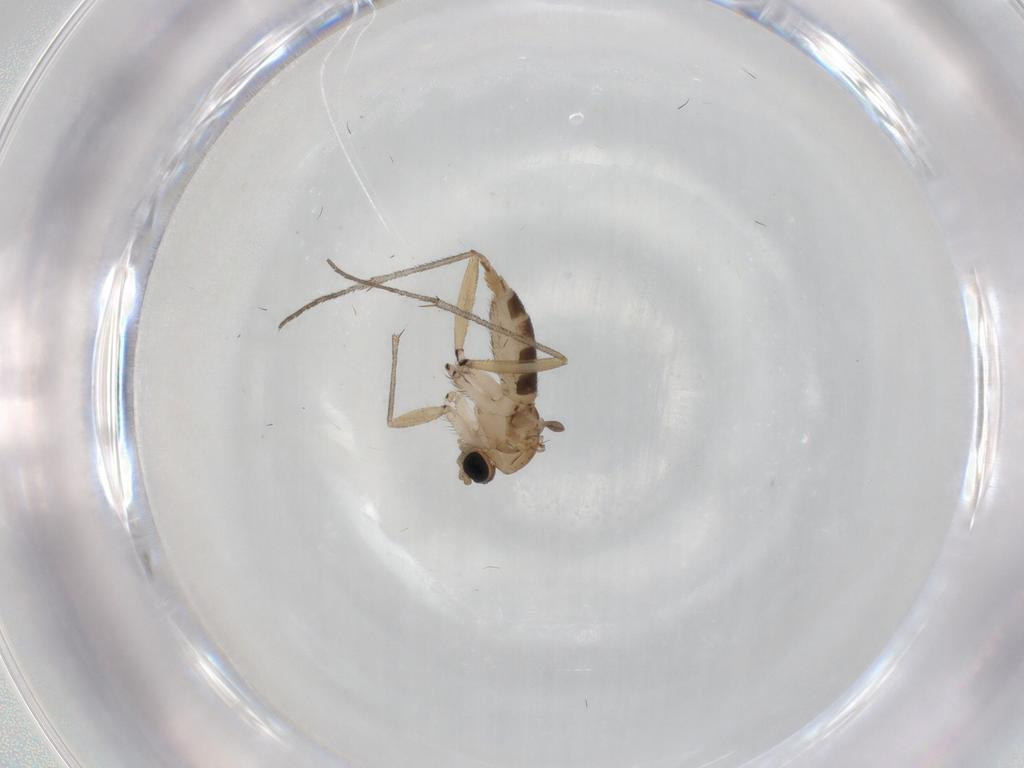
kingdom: Animalia
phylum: Arthropoda
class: Insecta
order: Diptera
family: Sciaridae
